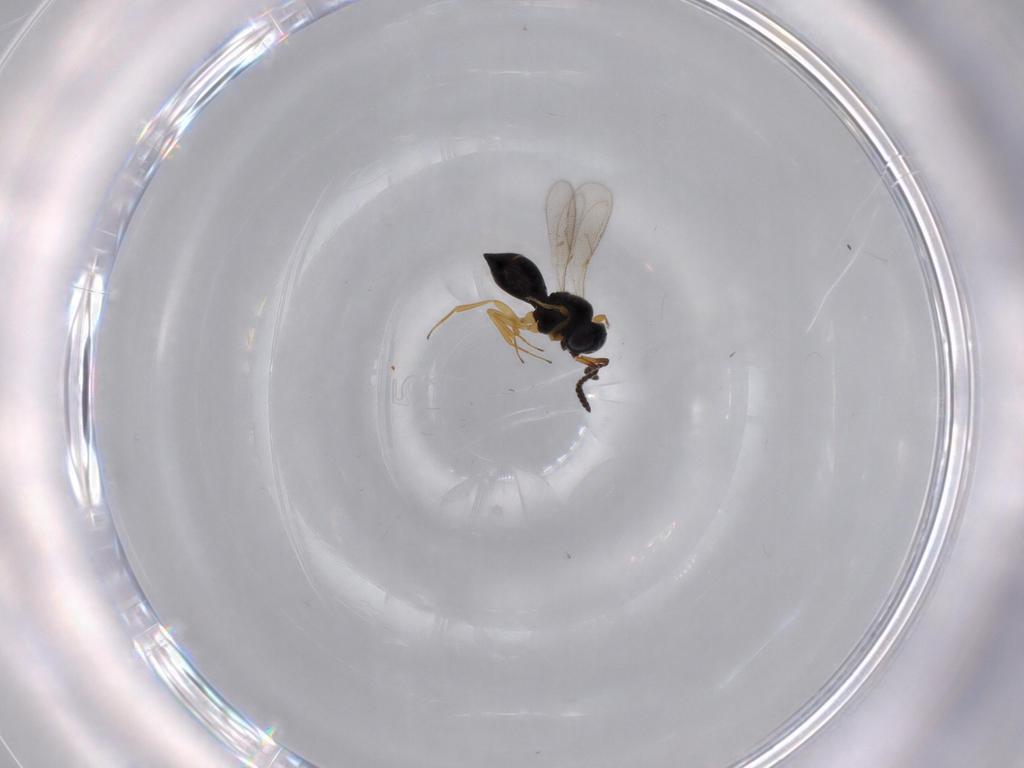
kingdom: Animalia
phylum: Arthropoda
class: Insecta
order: Hymenoptera
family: Scelionidae
